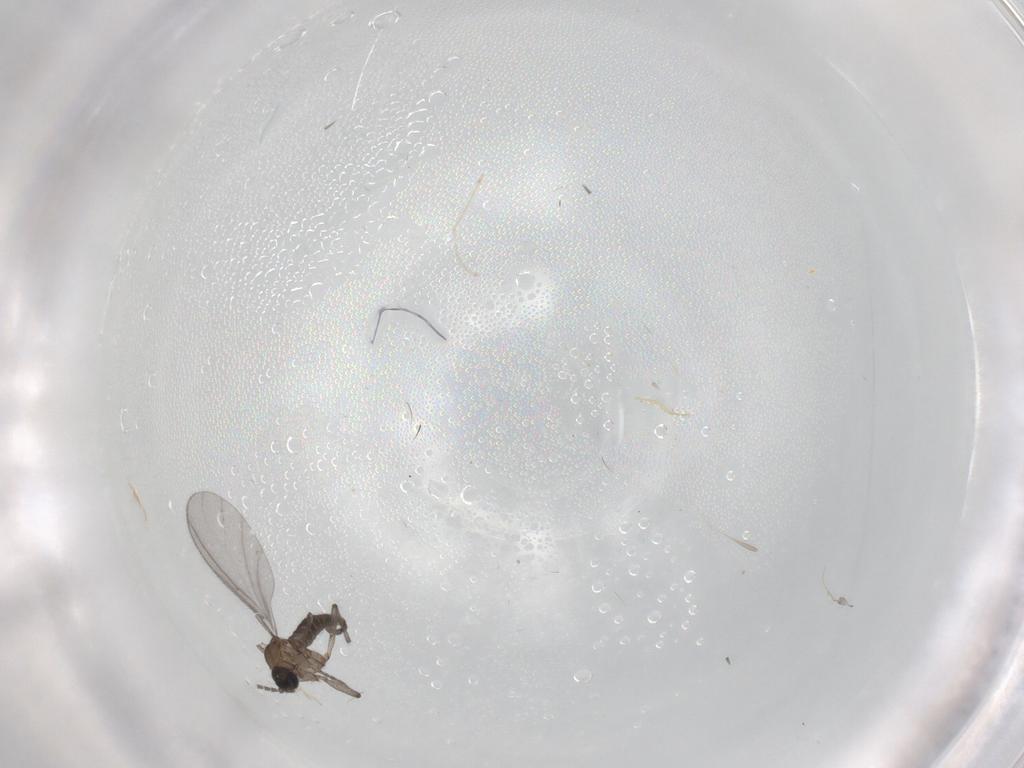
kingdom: Animalia
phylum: Arthropoda
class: Insecta
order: Diptera
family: Sciaridae
